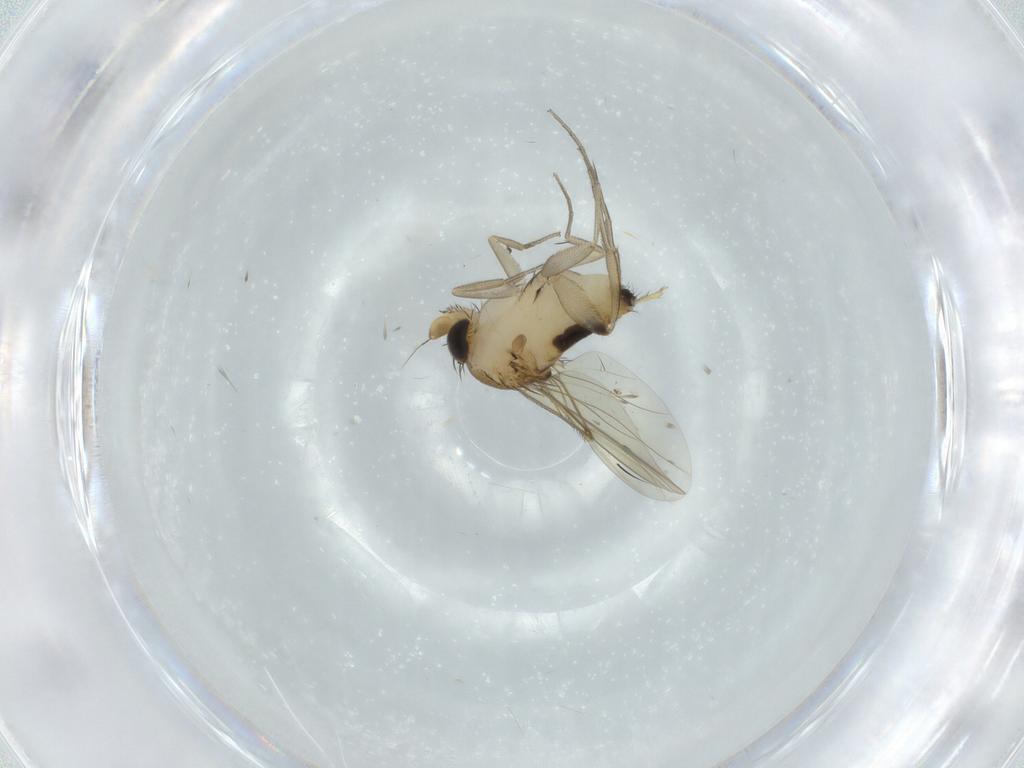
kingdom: Animalia
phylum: Arthropoda
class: Insecta
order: Diptera
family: Phoridae
